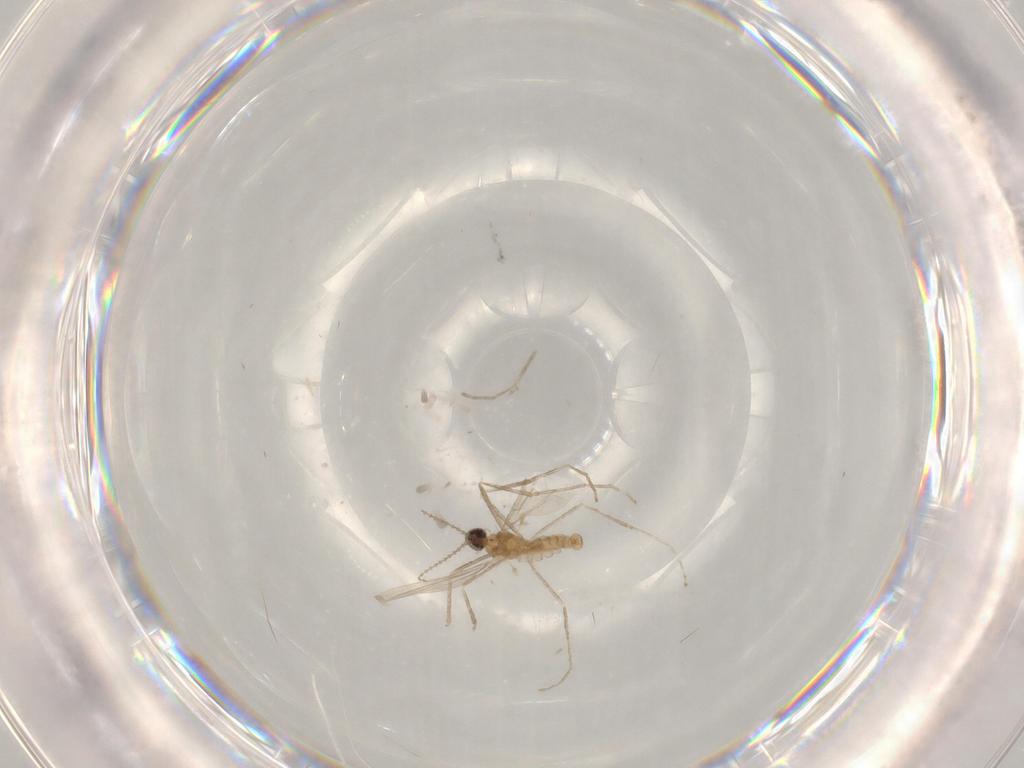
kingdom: Animalia
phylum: Arthropoda
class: Insecta
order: Diptera
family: Cecidomyiidae
